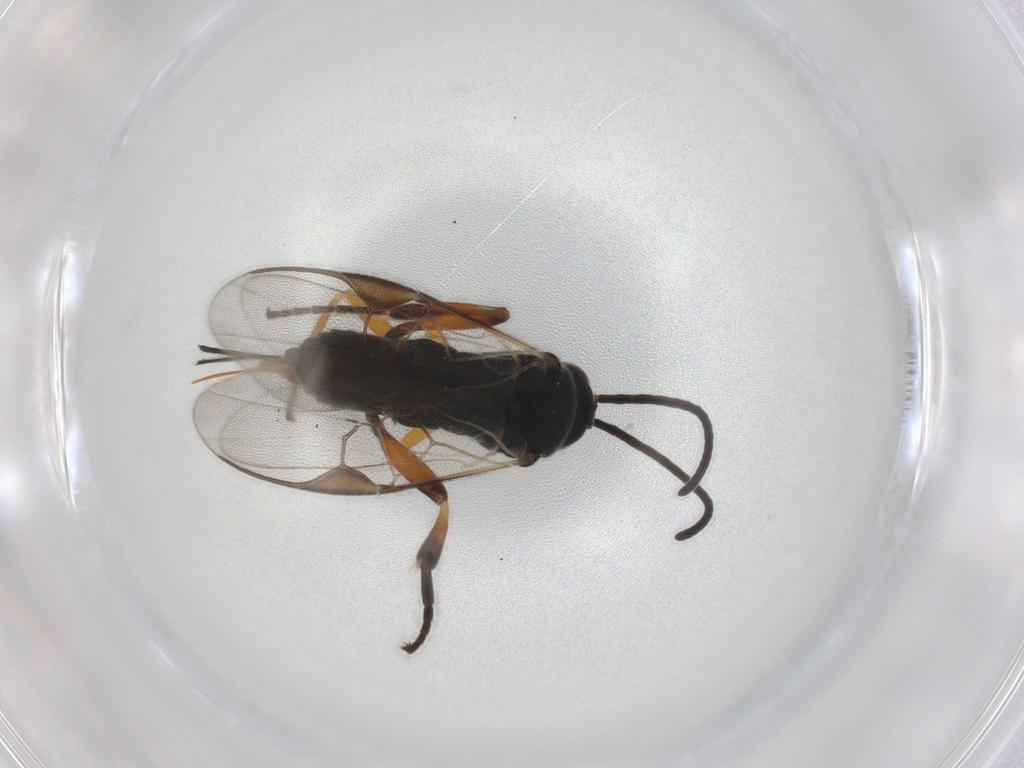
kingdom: Animalia
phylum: Arthropoda
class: Insecta
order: Hymenoptera
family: Braconidae
